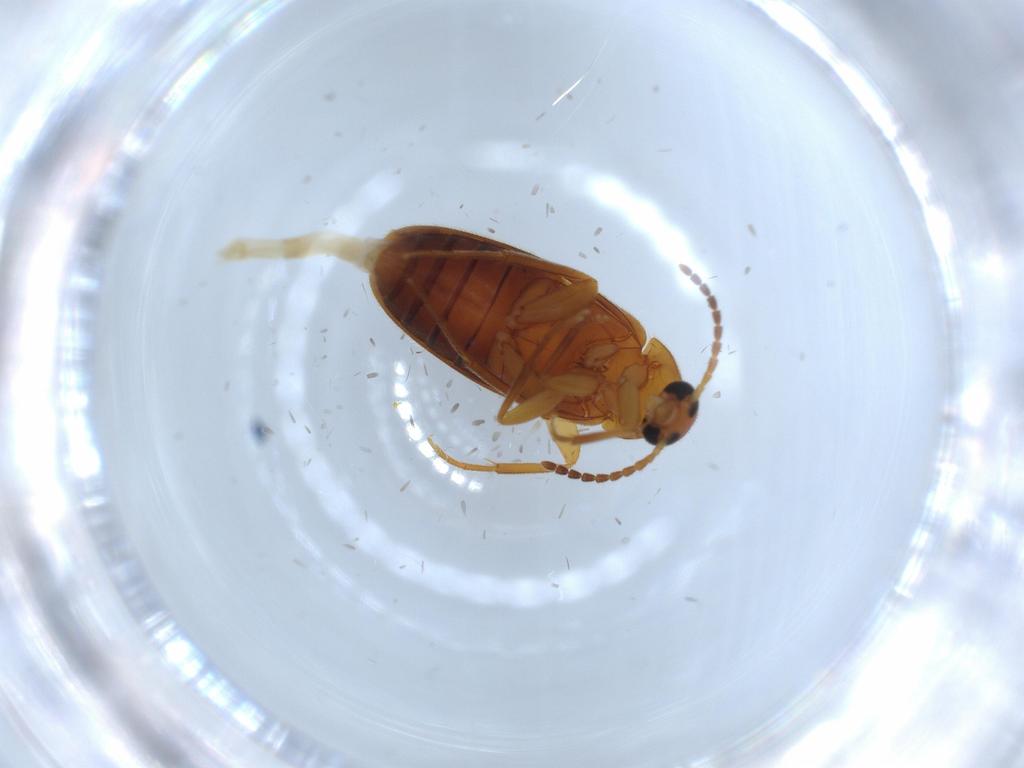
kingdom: Animalia
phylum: Arthropoda
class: Insecta
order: Coleoptera
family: Scraptiidae
